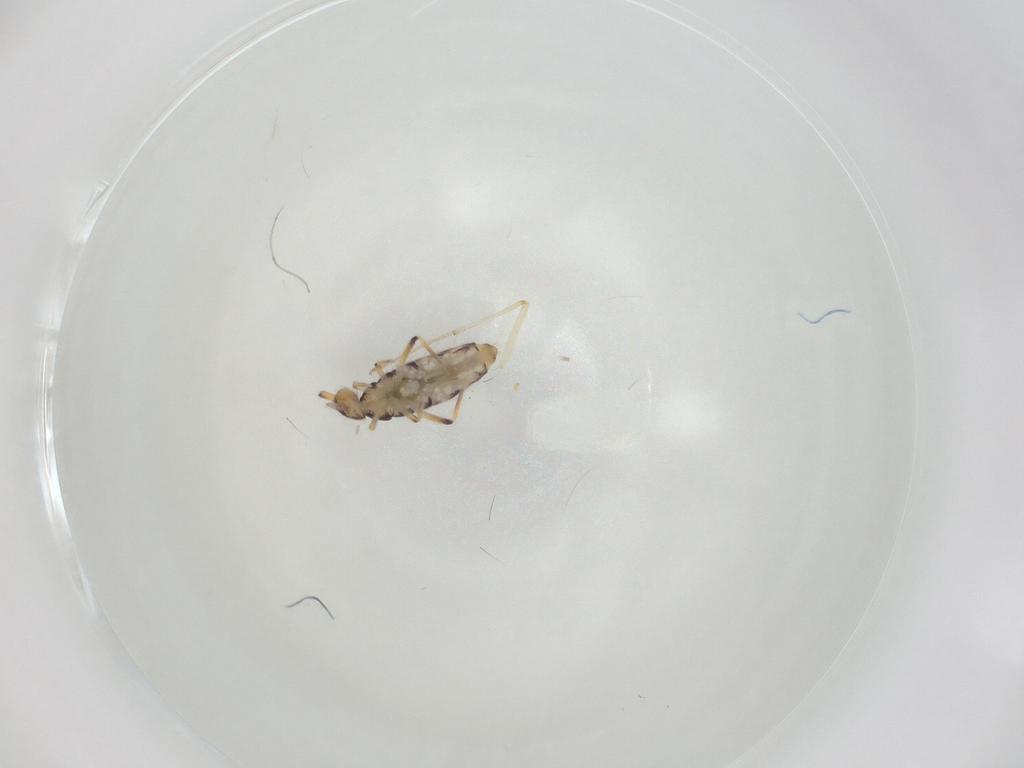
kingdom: Animalia
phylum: Arthropoda
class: Collembola
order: Entomobryomorpha
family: Entomobryidae
